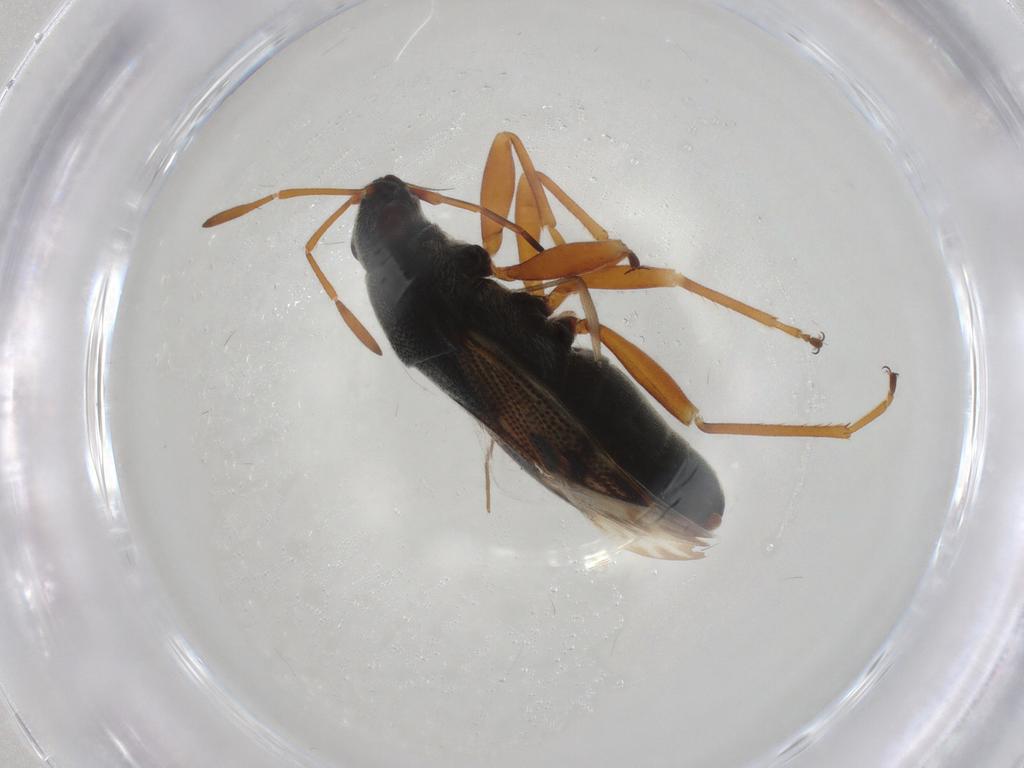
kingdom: Animalia
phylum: Arthropoda
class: Insecta
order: Hemiptera
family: Rhyparochromidae
